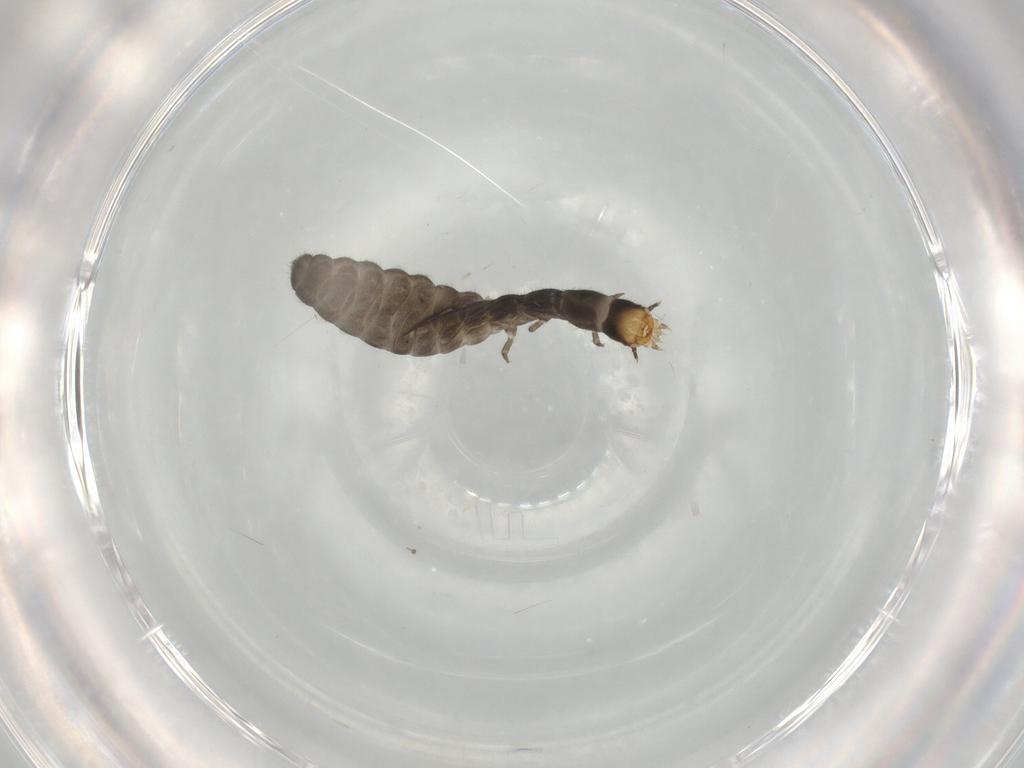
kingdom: Animalia
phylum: Arthropoda
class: Insecta
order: Coleoptera
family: Cantharidae
